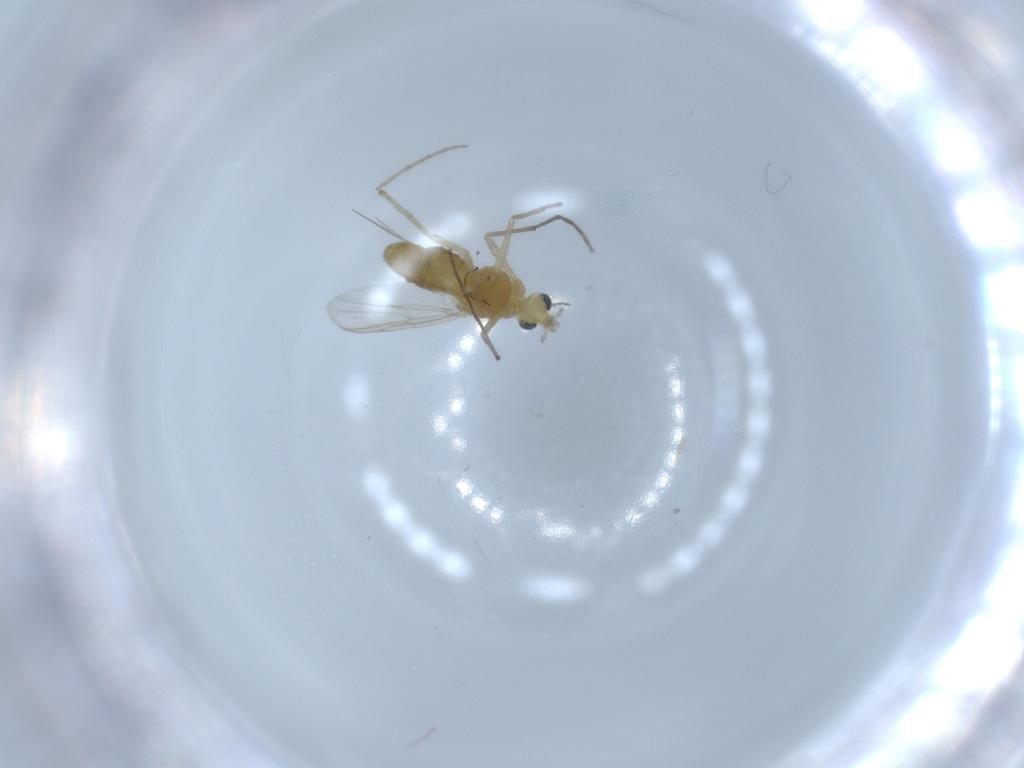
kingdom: Animalia
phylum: Arthropoda
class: Insecta
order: Diptera
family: Chironomidae
